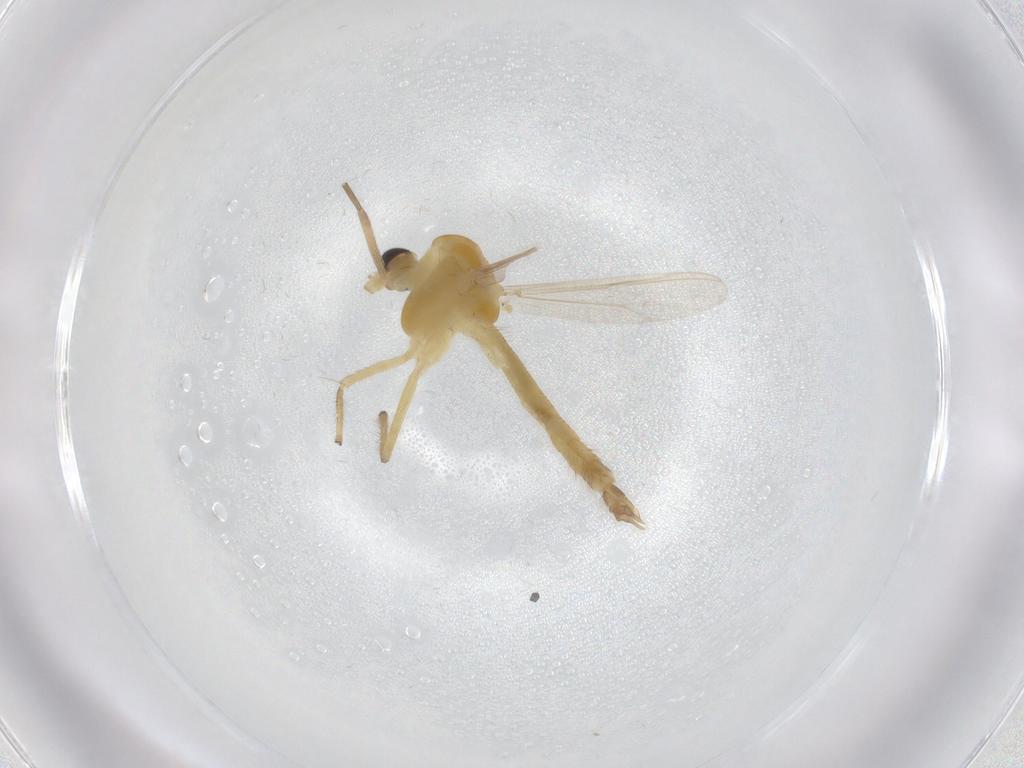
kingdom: Animalia
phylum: Arthropoda
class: Insecta
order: Diptera
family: Chironomidae
